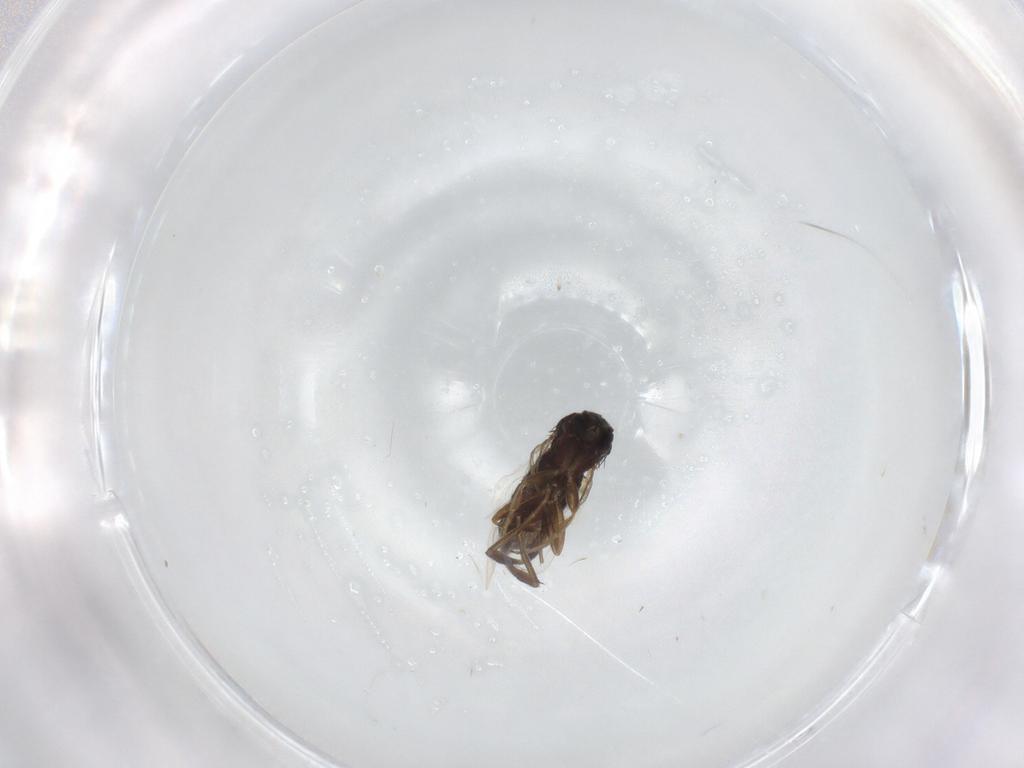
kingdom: Animalia
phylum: Arthropoda
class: Insecta
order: Diptera
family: Phoridae
